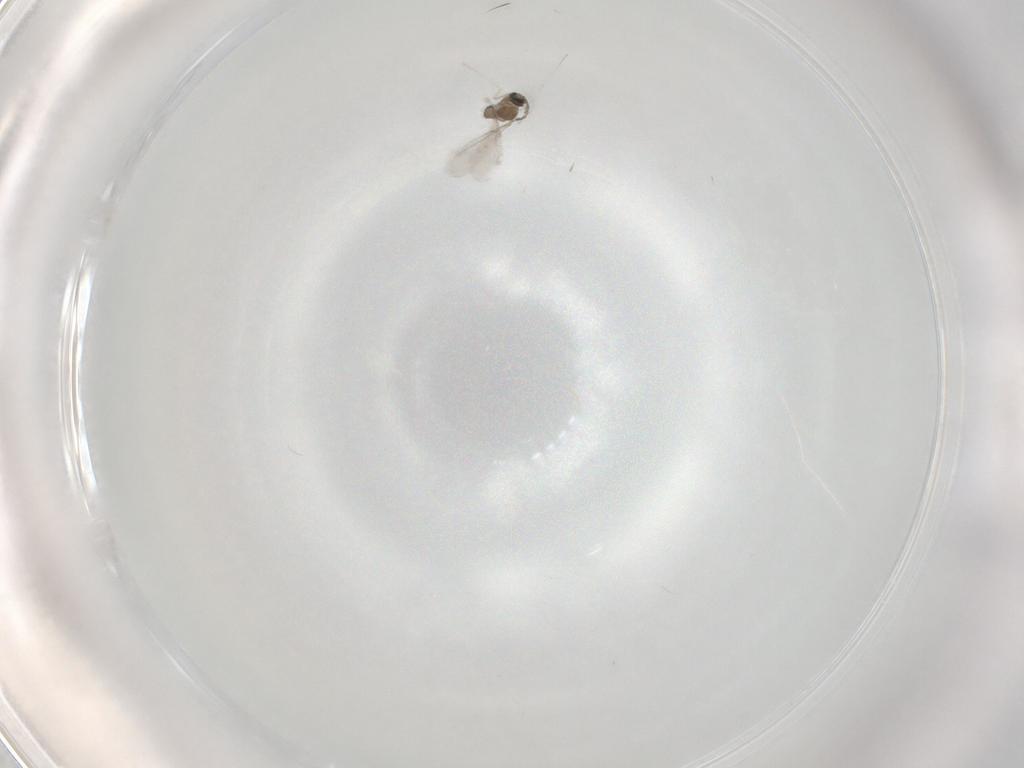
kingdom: Animalia
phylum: Arthropoda
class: Insecta
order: Diptera
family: Cecidomyiidae
